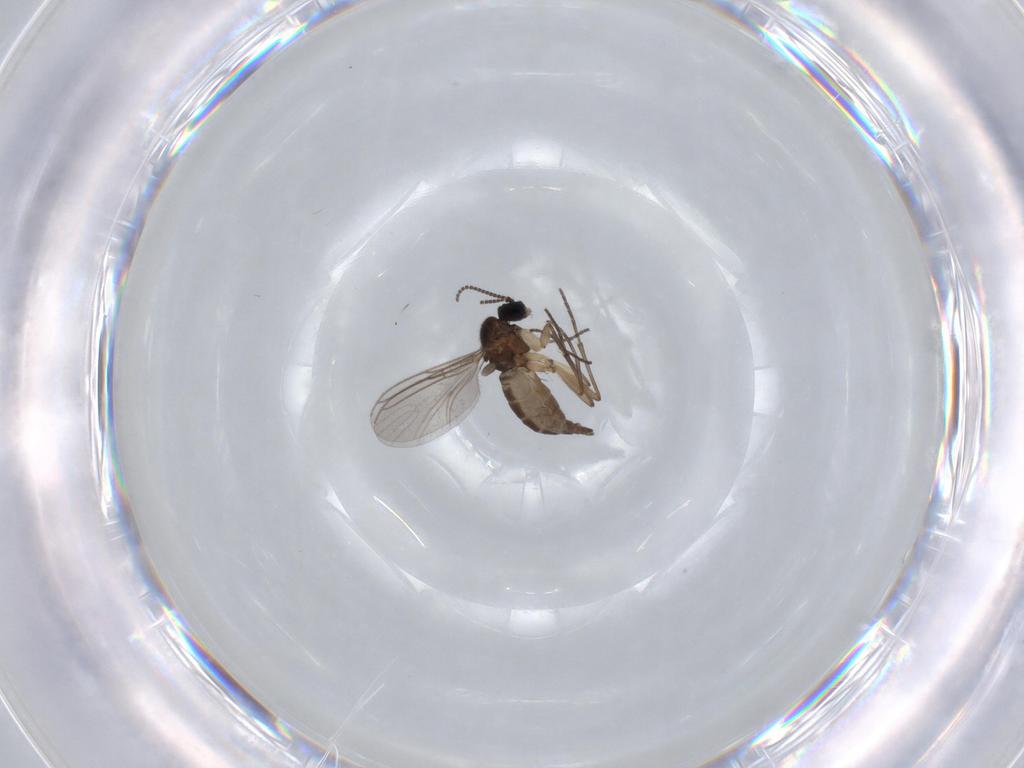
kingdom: Animalia
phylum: Arthropoda
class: Insecta
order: Diptera
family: Sciaridae
